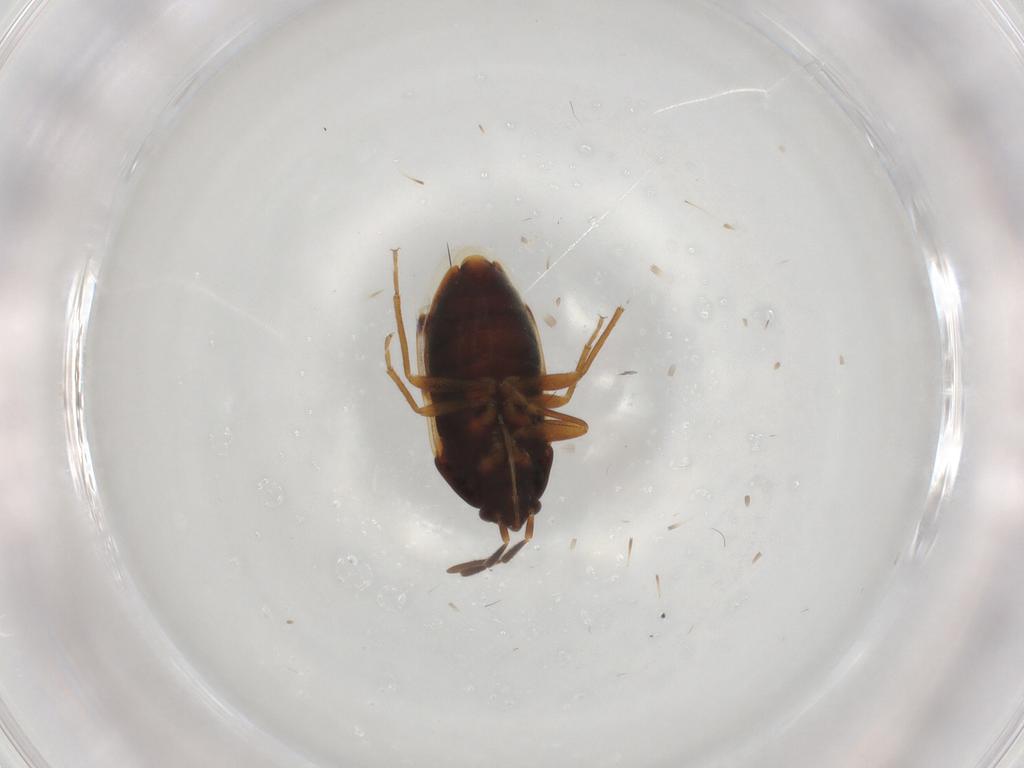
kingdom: Animalia
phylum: Arthropoda
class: Insecta
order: Hemiptera
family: Rhyparochromidae
